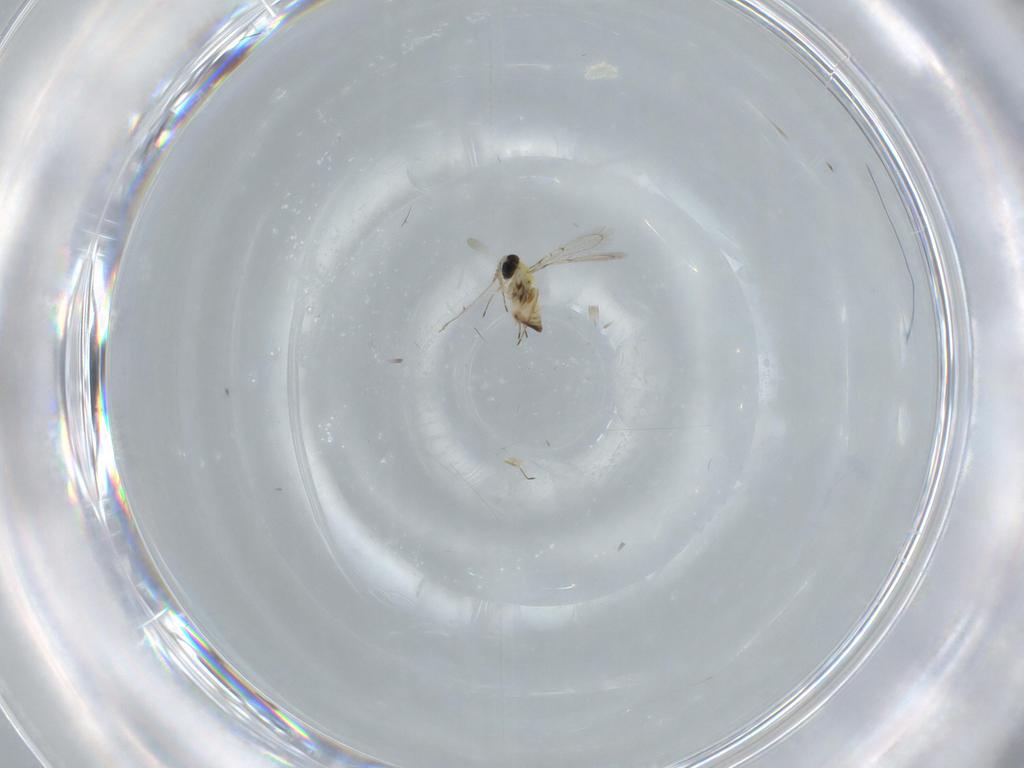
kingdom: Animalia
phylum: Arthropoda
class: Insecta
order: Hymenoptera
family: Trichogrammatidae
